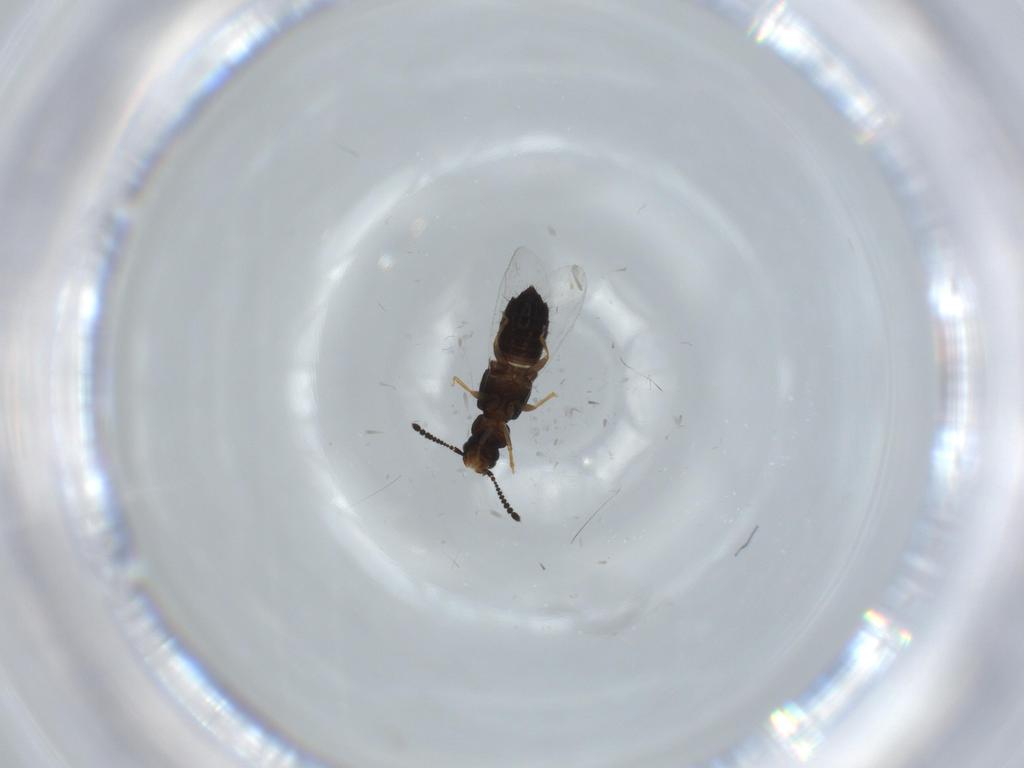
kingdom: Animalia
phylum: Arthropoda
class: Insecta
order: Coleoptera
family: Staphylinidae
